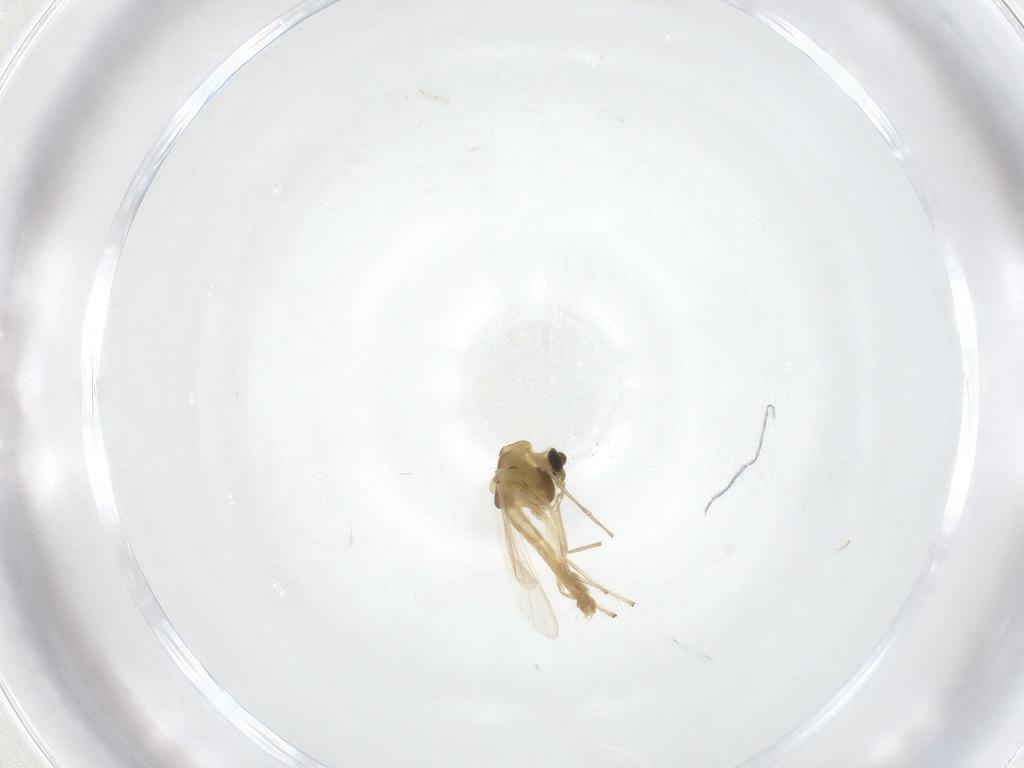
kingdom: Animalia
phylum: Arthropoda
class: Insecta
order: Diptera
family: Chironomidae
